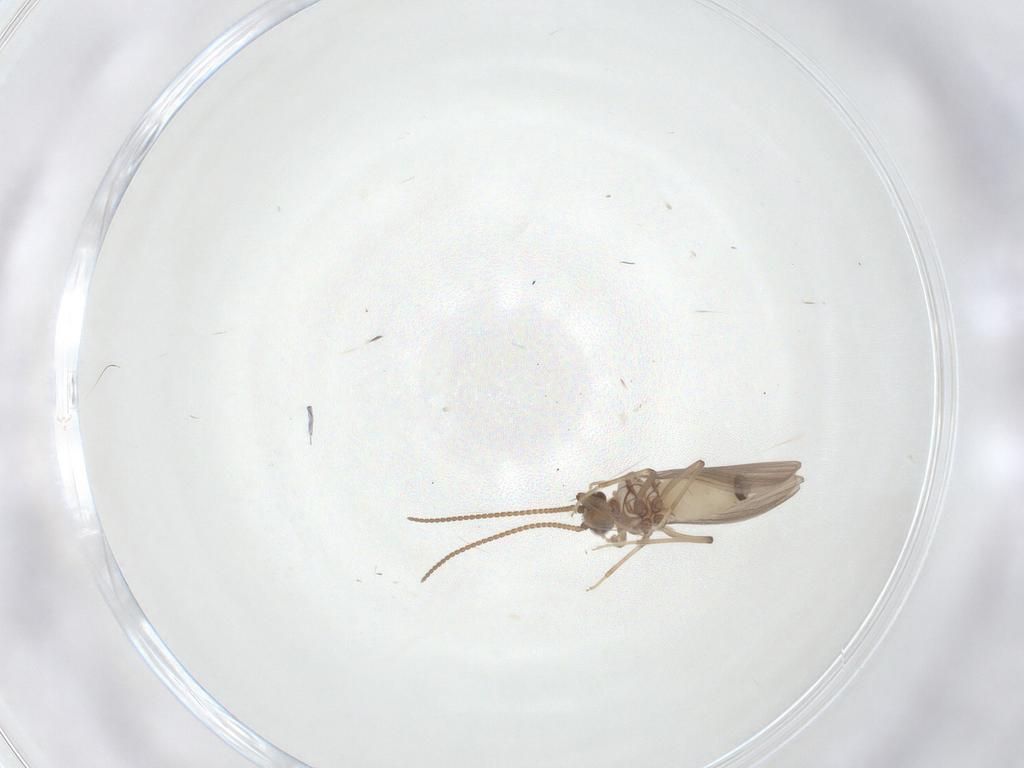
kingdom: Animalia
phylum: Arthropoda
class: Insecta
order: Neuroptera
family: Coniopterygidae
